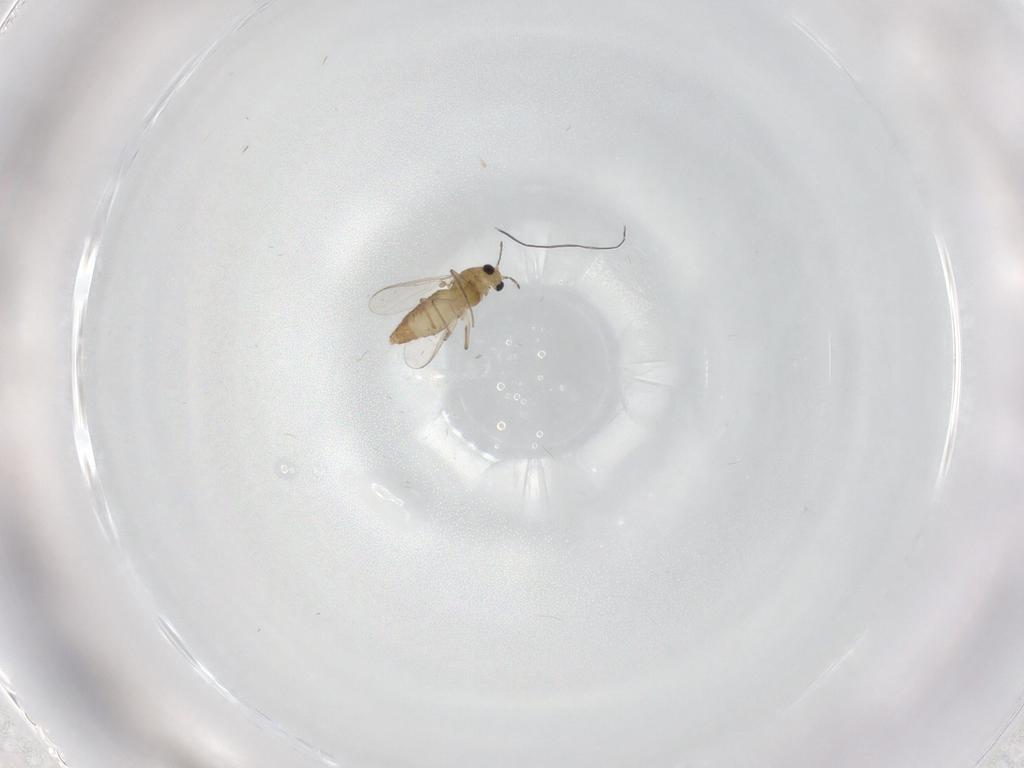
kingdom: Animalia
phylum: Arthropoda
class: Insecta
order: Diptera
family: Chironomidae
